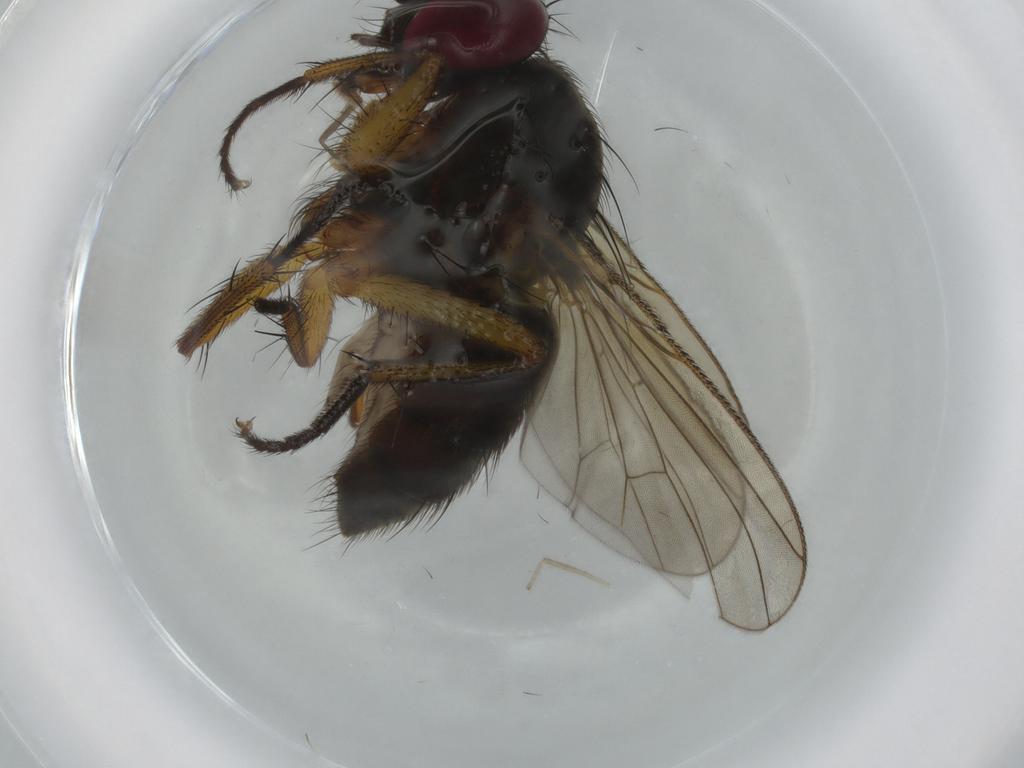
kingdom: Animalia
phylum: Arthropoda
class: Insecta
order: Diptera
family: Muscidae
